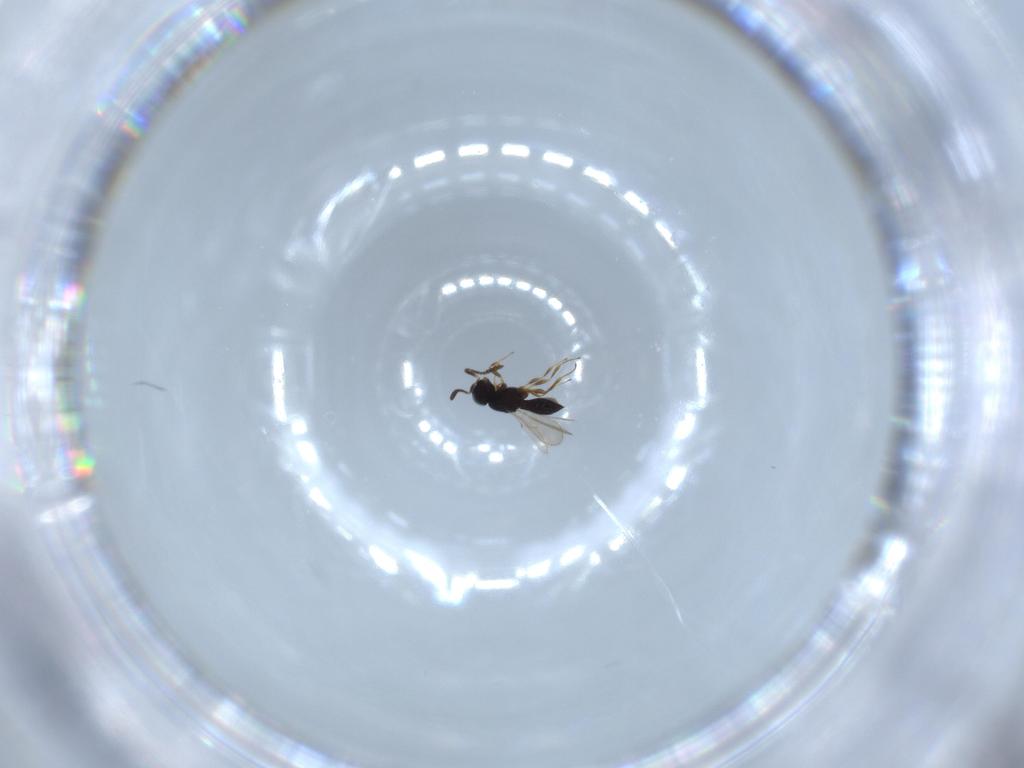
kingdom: Animalia
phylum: Arthropoda
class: Insecta
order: Hymenoptera
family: Scelionidae
